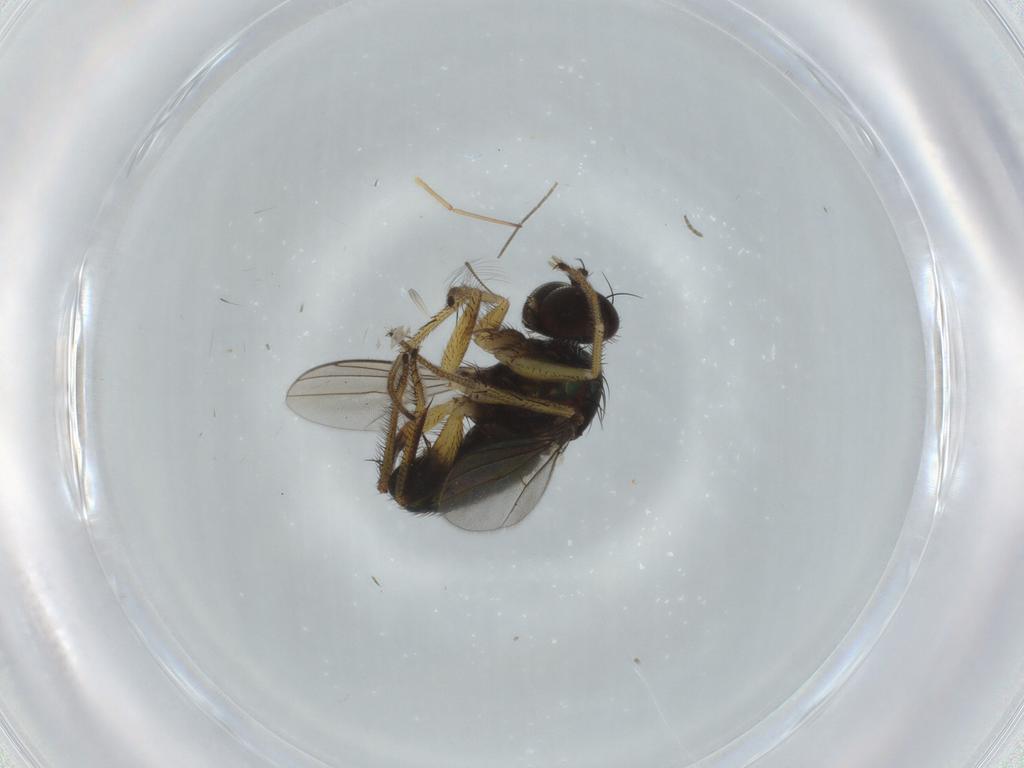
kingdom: Animalia
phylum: Arthropoda
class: Insecta
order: Diptera
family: Dolichopodidae
